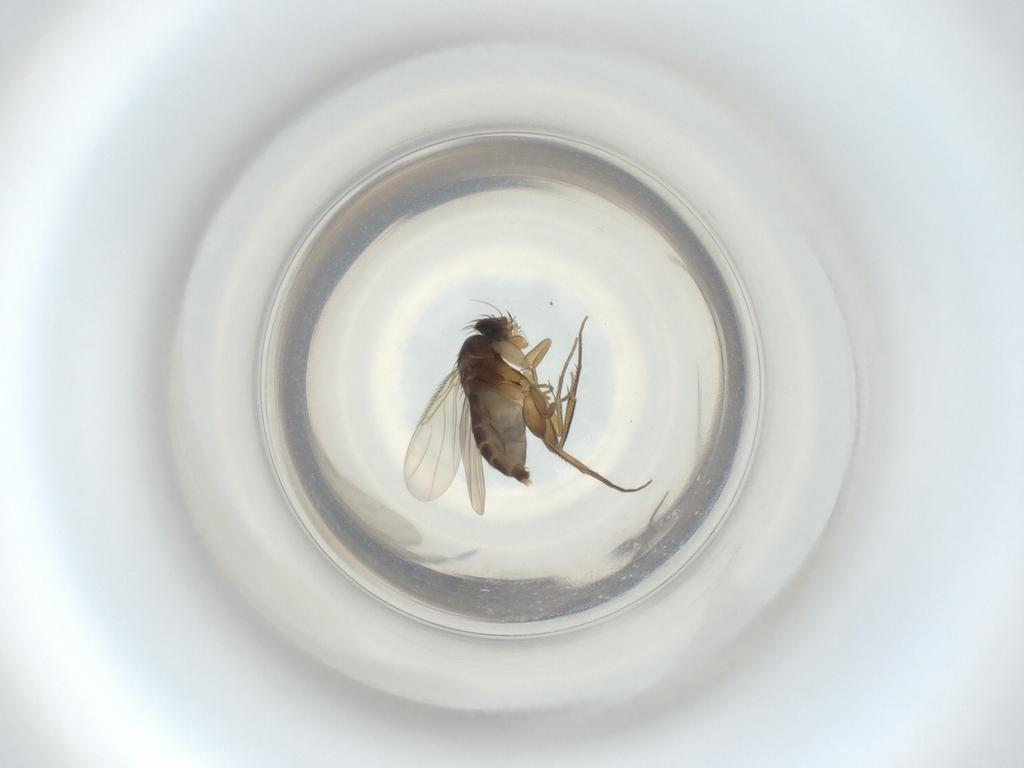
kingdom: Animalia
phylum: Arthropoda
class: Insecta
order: Diptera
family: Phoridae
